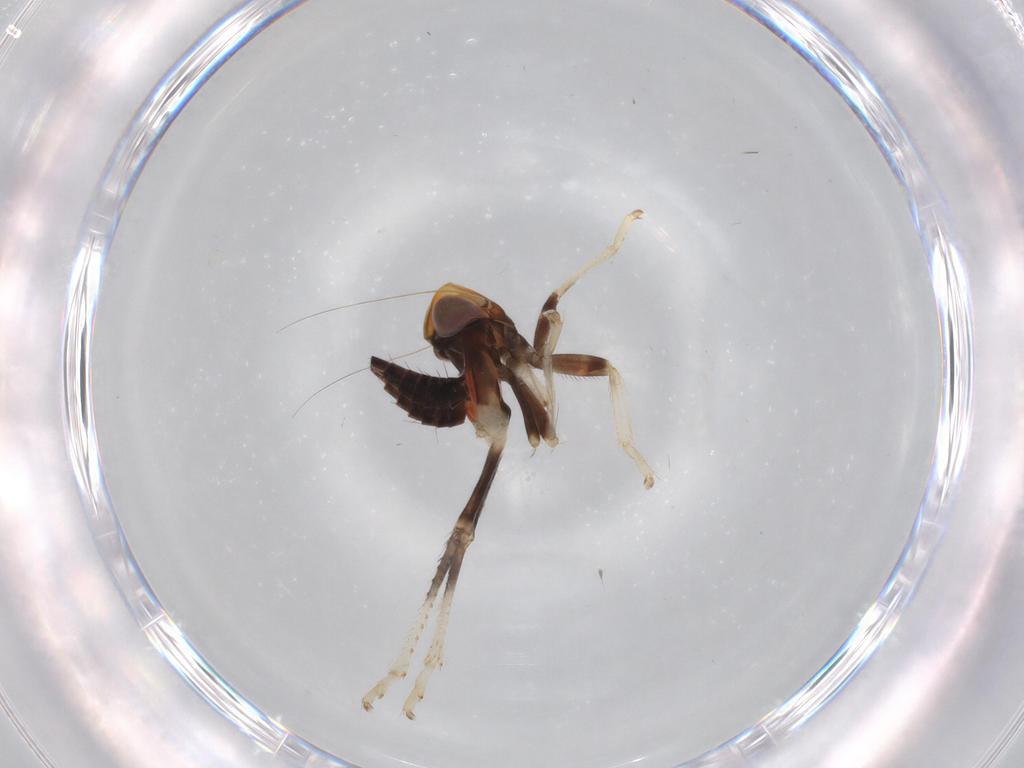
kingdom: Animalia
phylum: Arthropoda
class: Insecta
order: Hemiptera
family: Cicadellidae
